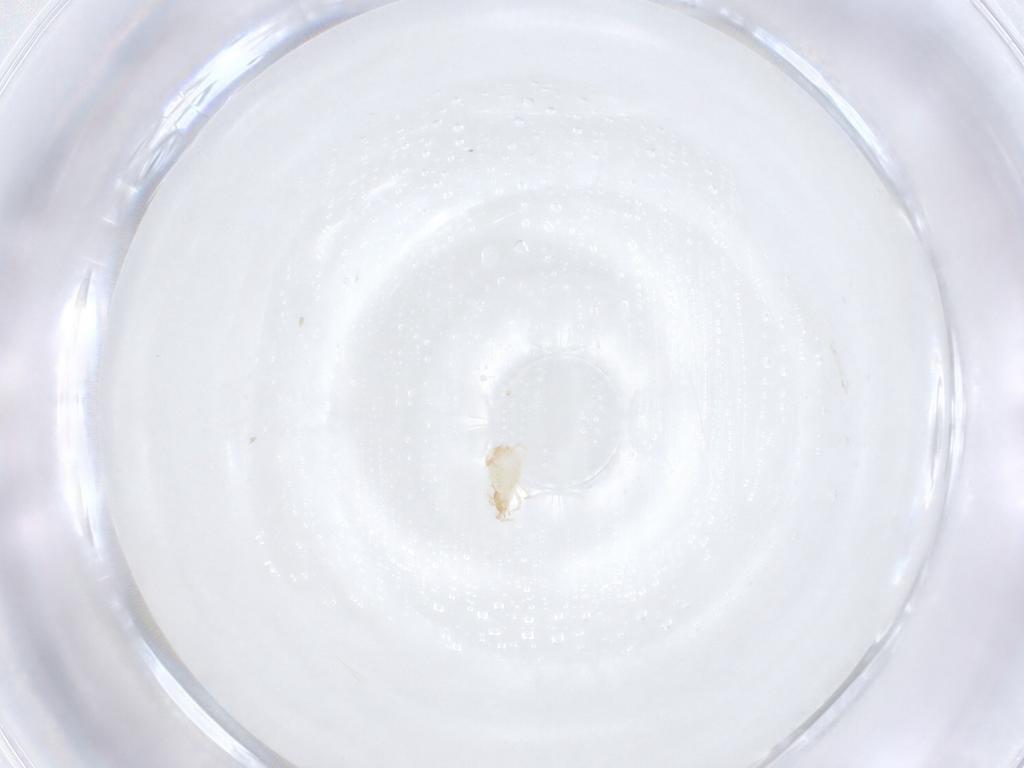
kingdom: Animalia
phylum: Arthropoda
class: Arachnida
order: Mesostigmata
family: Phytoseiidae
